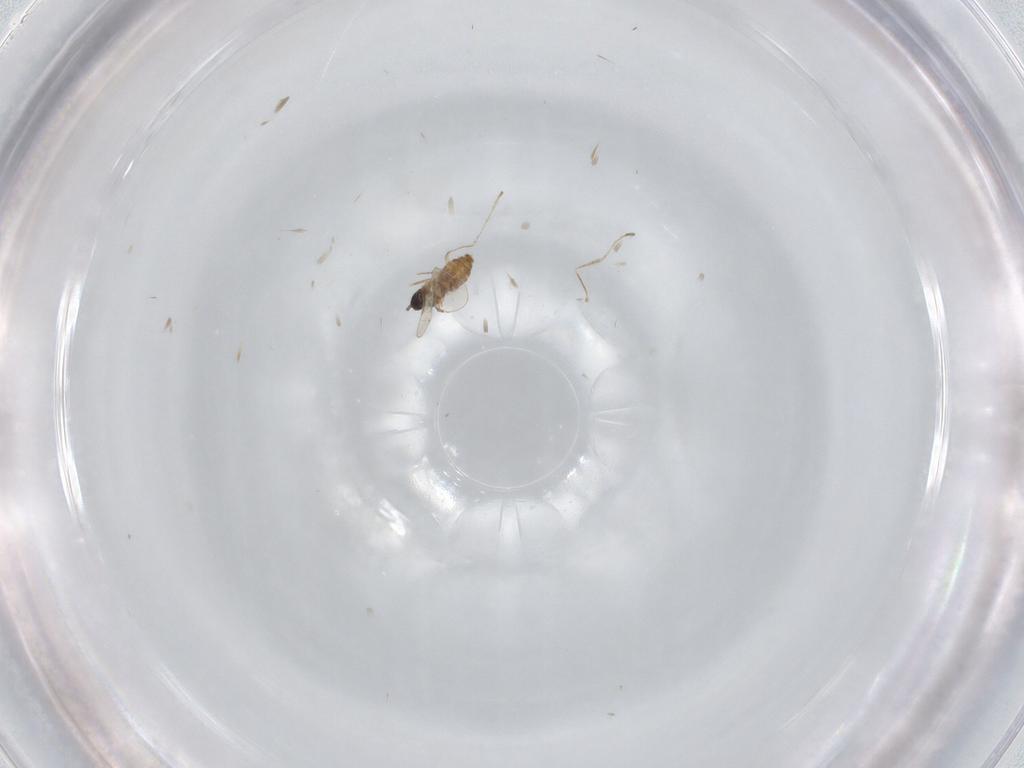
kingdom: Animalia
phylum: Arthropoda
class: Insecta
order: Diptera
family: Cecidomyiidae
